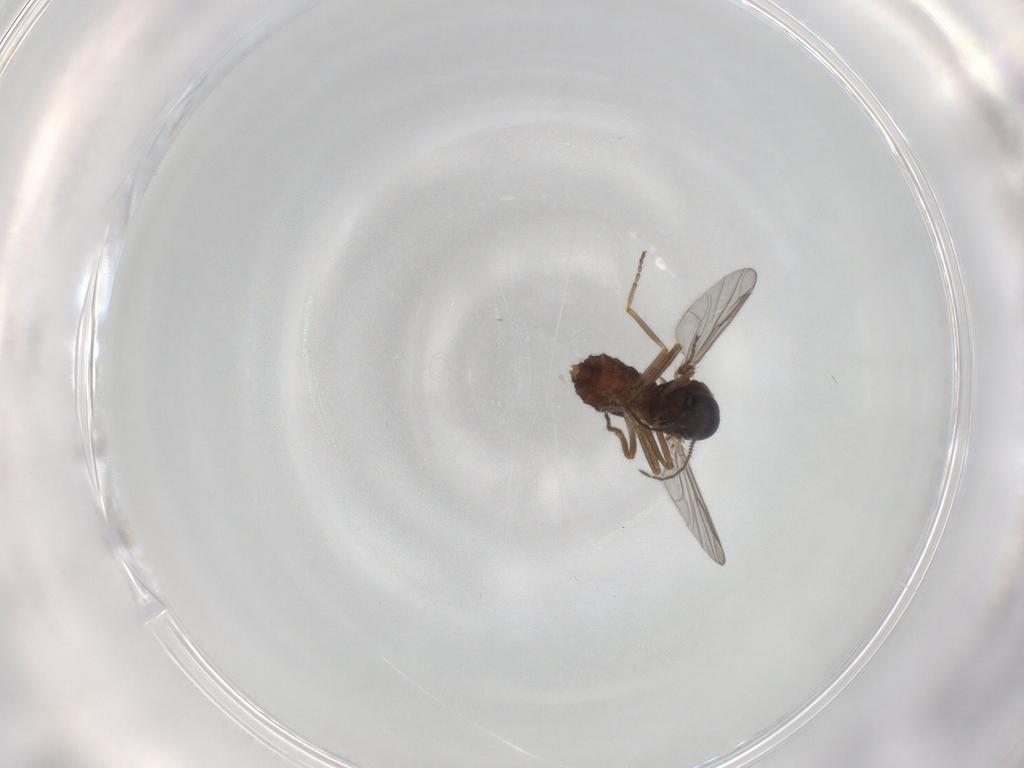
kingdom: Animalia
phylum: Arthropoda
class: Insecta
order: Diptera
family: Ceratopogonidae
